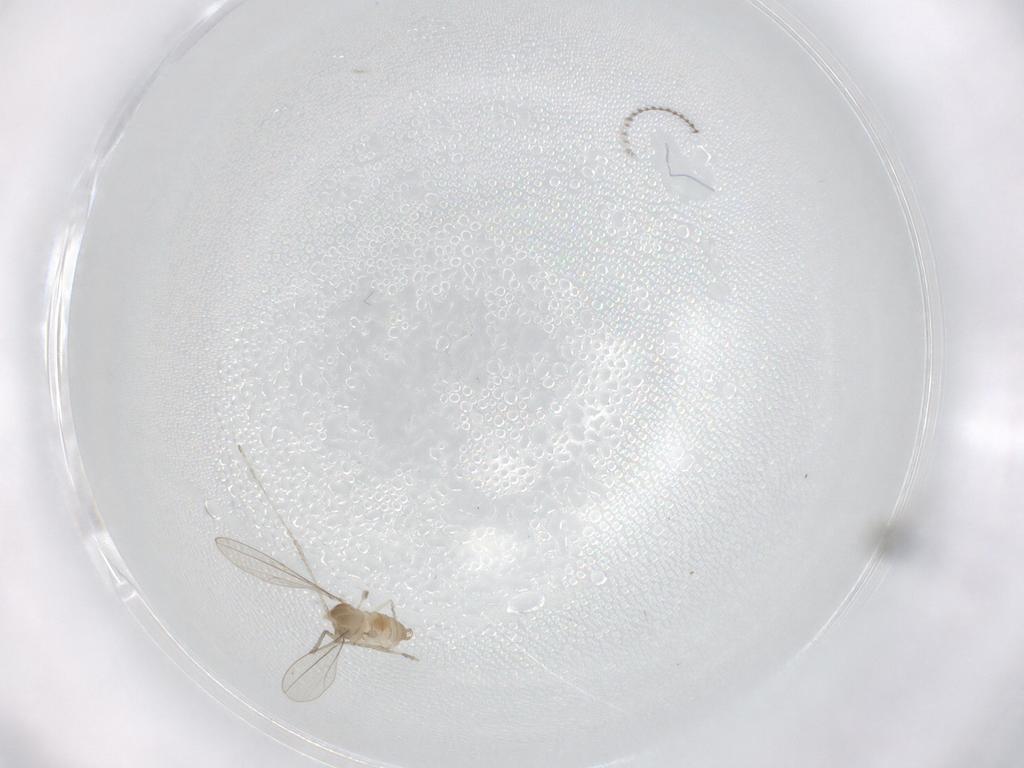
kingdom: Animalia
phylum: Arthropoda
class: Insecta
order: Diptera
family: Cecidomyiidae
